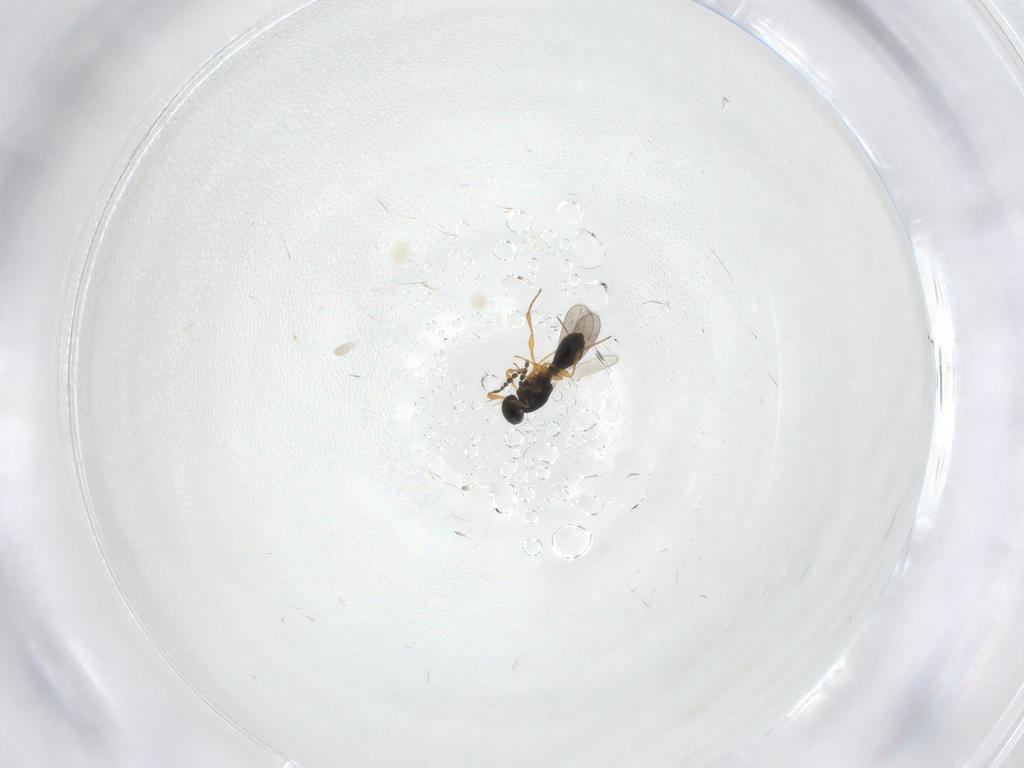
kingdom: Animalia
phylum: Arthropoda
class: Insecta
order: Hymenoptera
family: Platygastridae
